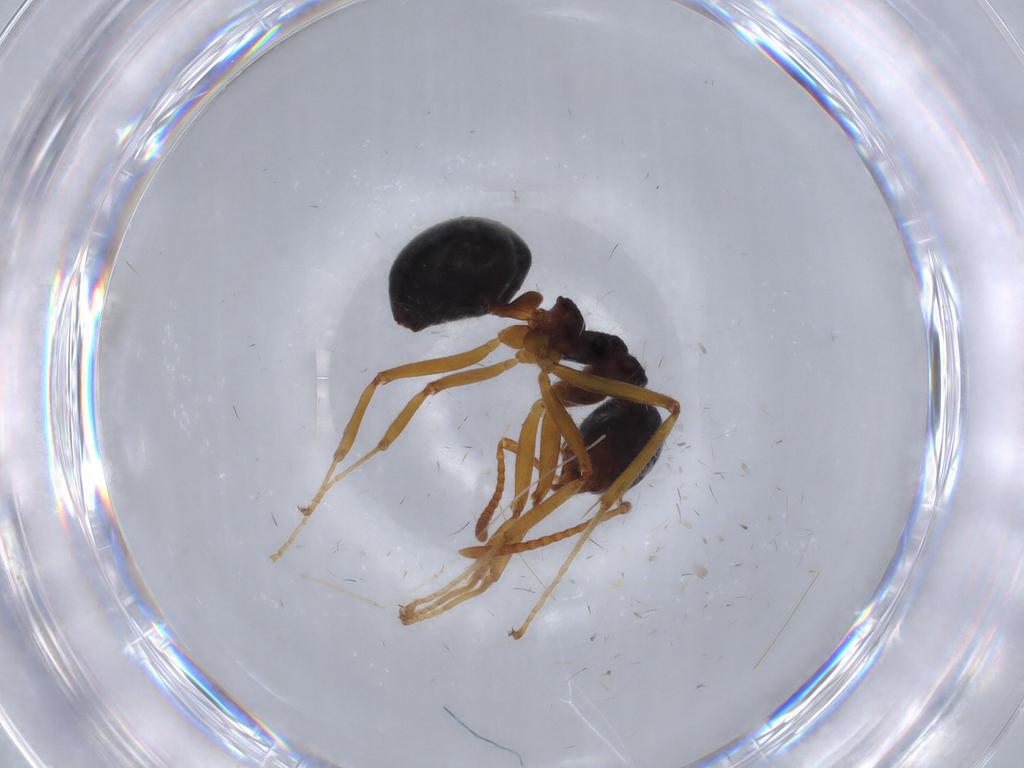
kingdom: Animalia
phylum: Arthropoda
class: Insecta
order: Hymenoptera
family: Formicidae
